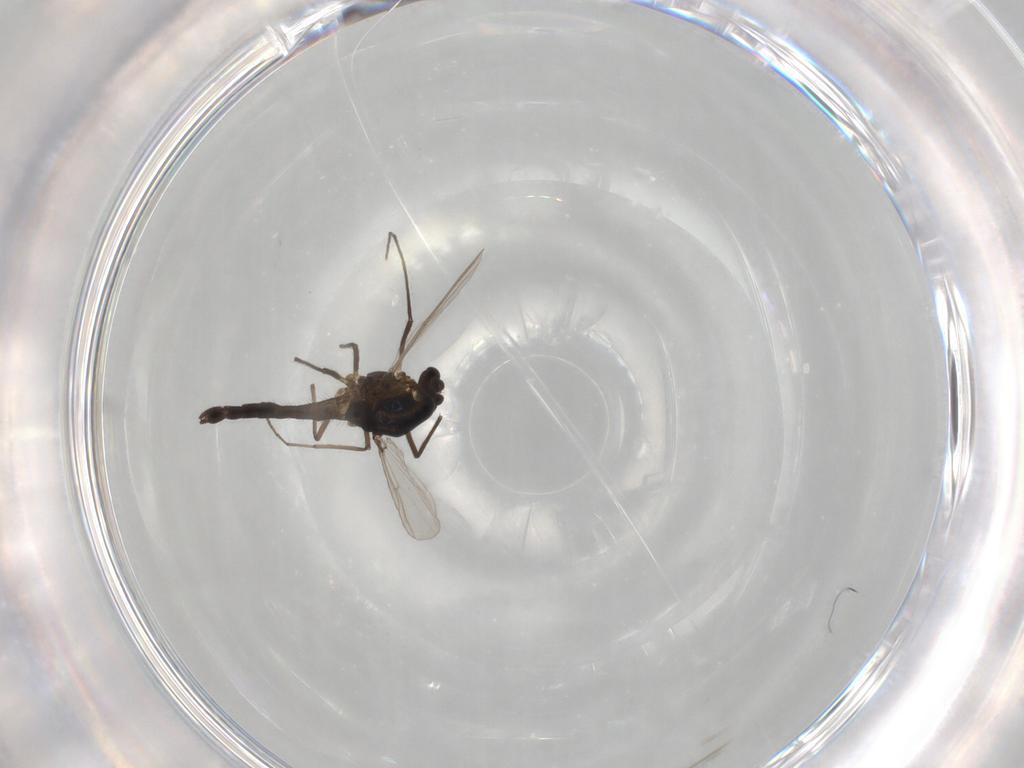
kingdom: Animalia
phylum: Arthropoda
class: Insecta
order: Diptera
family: Chironomidae
